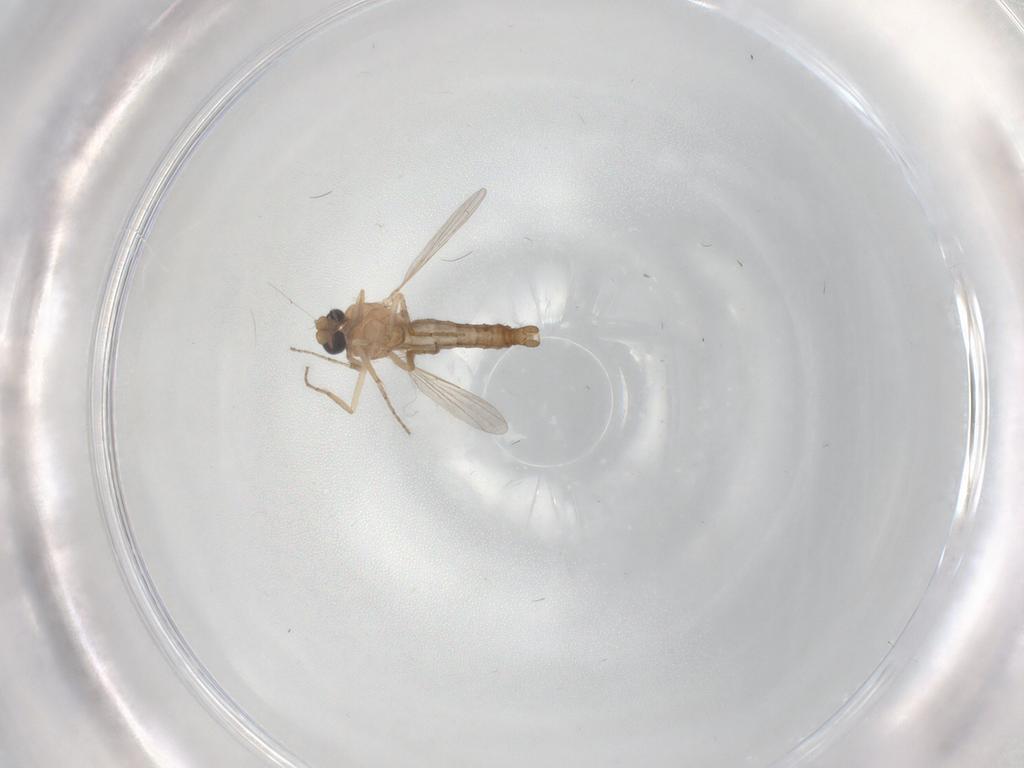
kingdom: Animalia
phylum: Arthropoda
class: Insecta
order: Diptera
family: Ceratopogonidae
